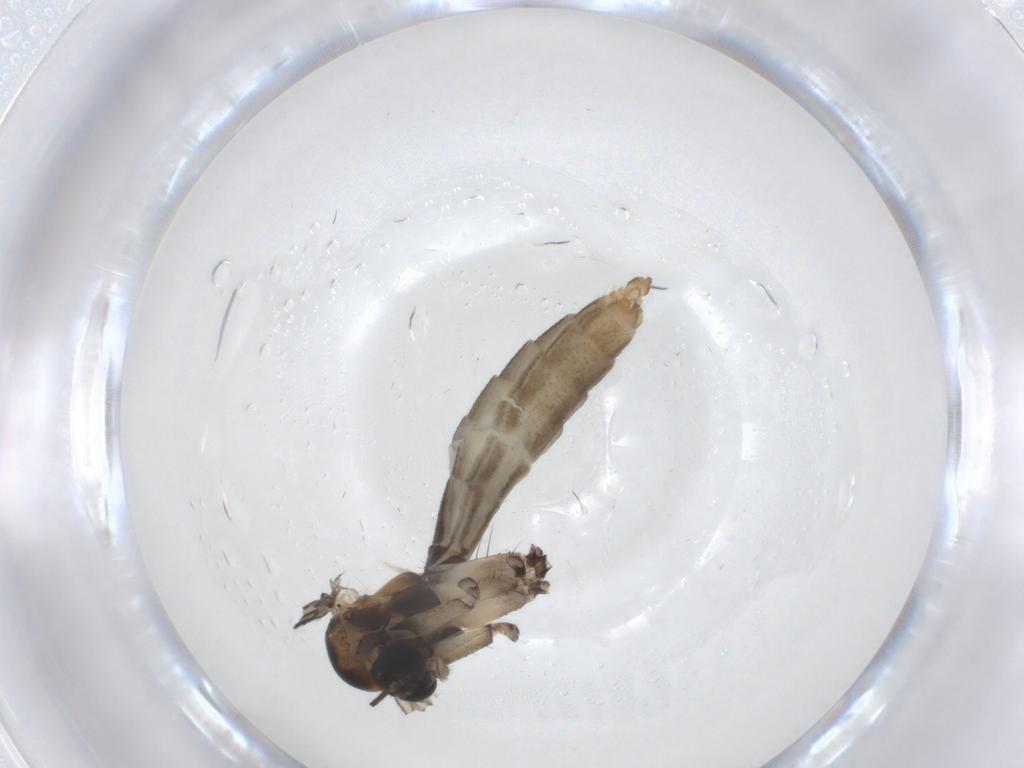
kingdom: Animalia
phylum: Arthropoda
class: Insecta
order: Diptera
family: Mycetophilidae
